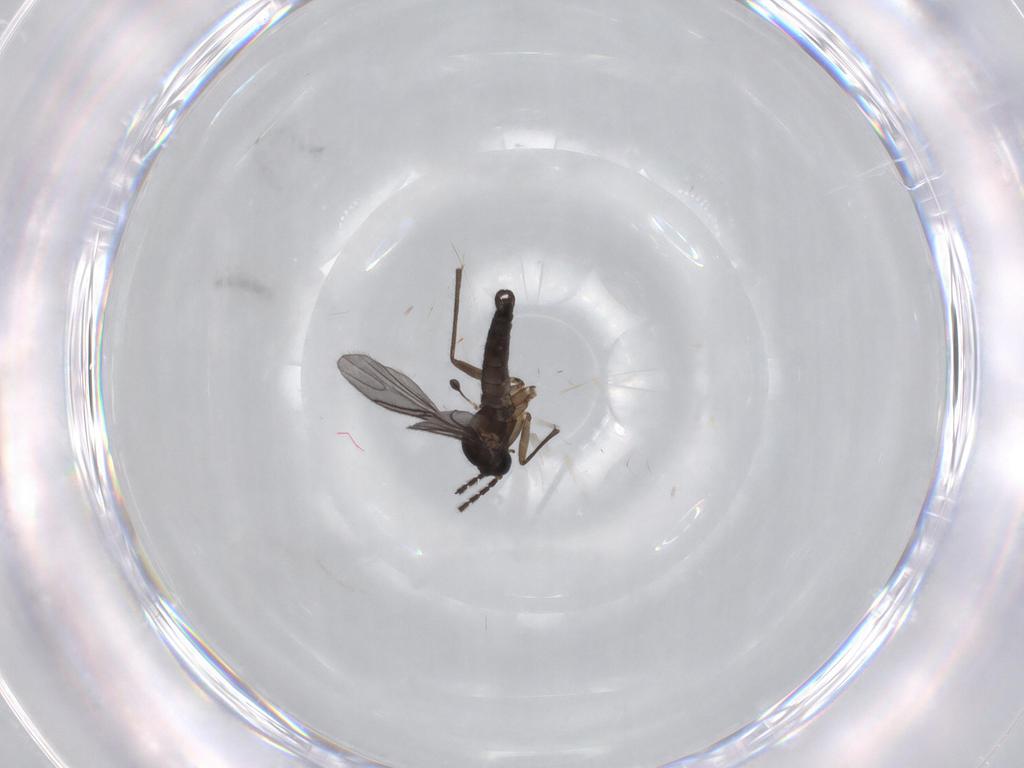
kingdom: Animalia
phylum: Arthropoda
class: Insecta
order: Diptera
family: Sciaridae
